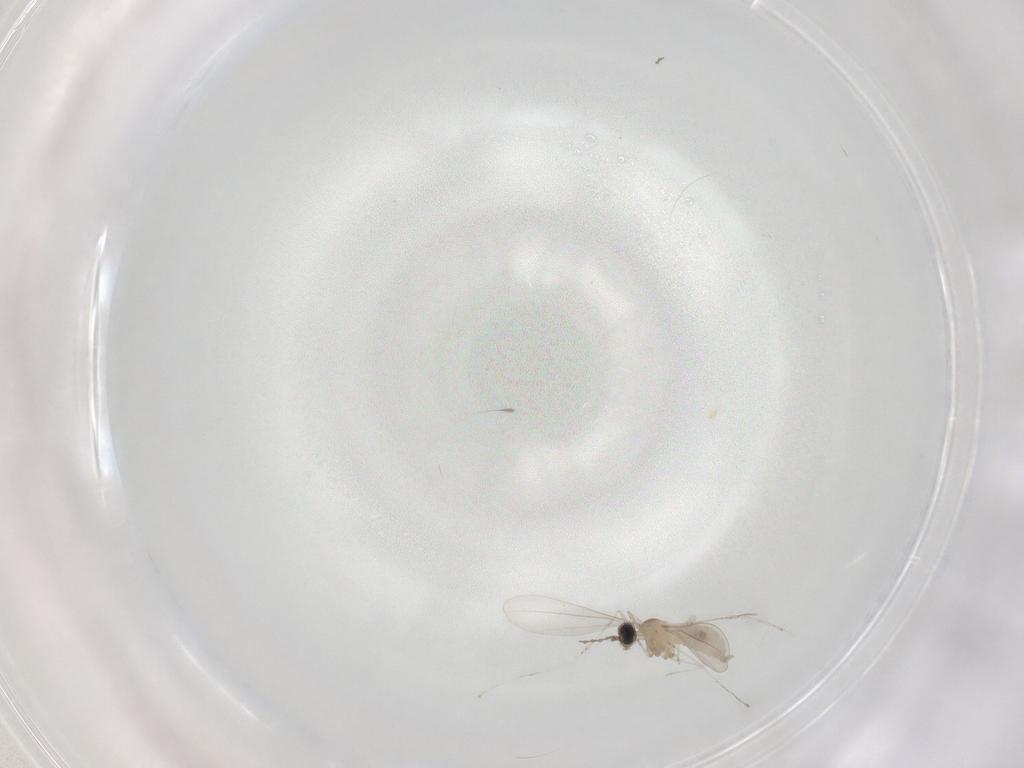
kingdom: Animalia
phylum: Arthropoda
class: Insecta
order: Diptera
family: Cecidomyiidae
